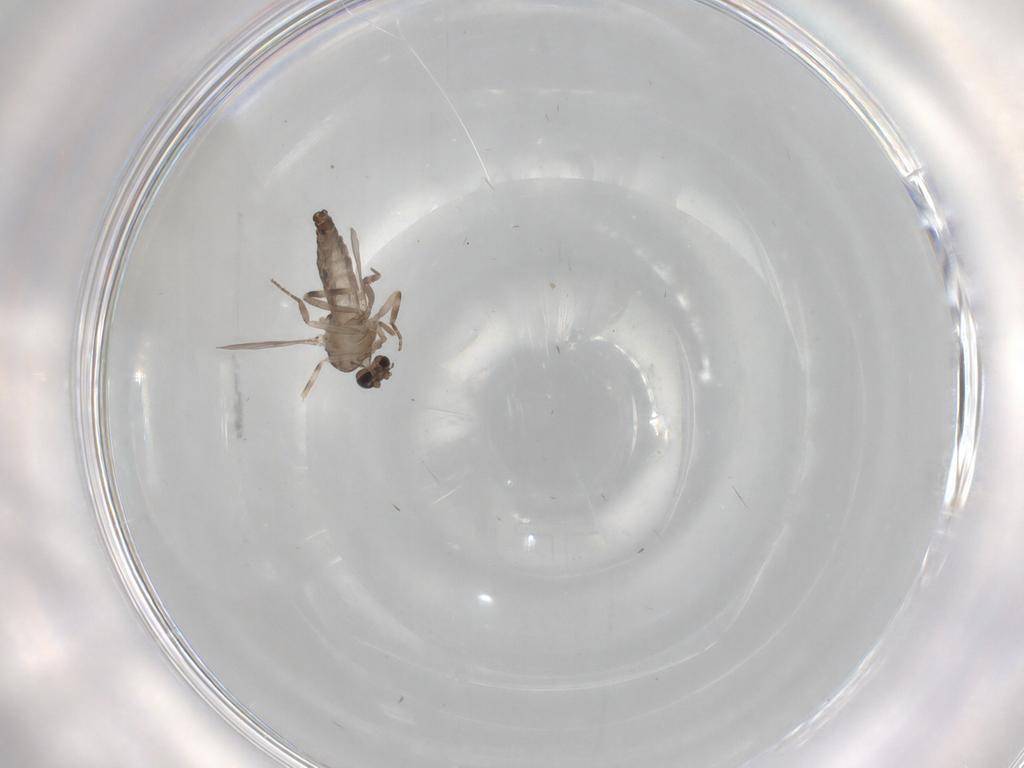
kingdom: Animalia
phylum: Arthropoda
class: Insecta
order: Diptera
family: Ceratopogonidae
